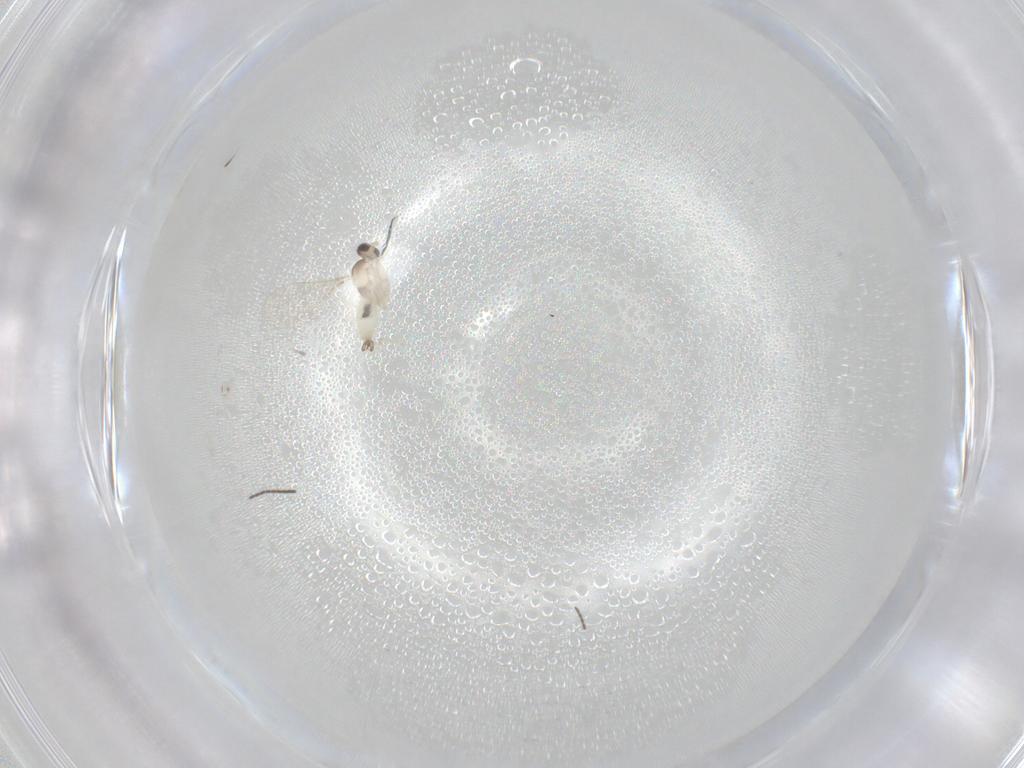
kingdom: Animalia
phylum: Arthropoda
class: Insecta
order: Diptera
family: Cecidomyiidae
